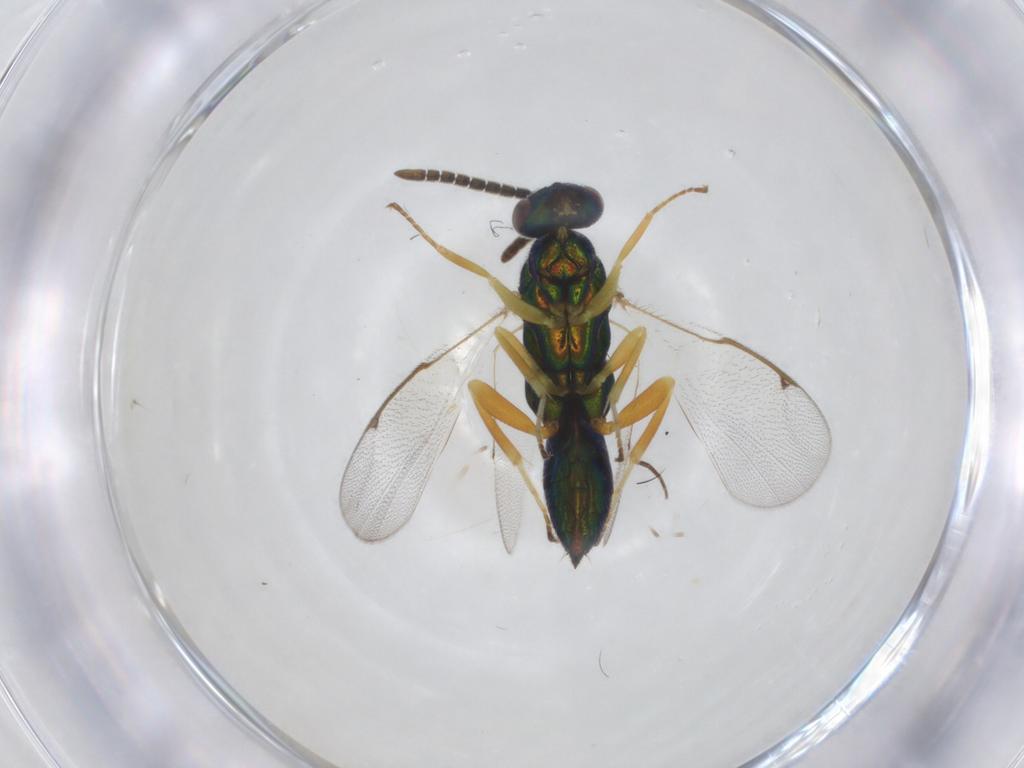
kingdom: Animalia
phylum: Arthropoda
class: Insecta
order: Hymenoptera
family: Torymidae
